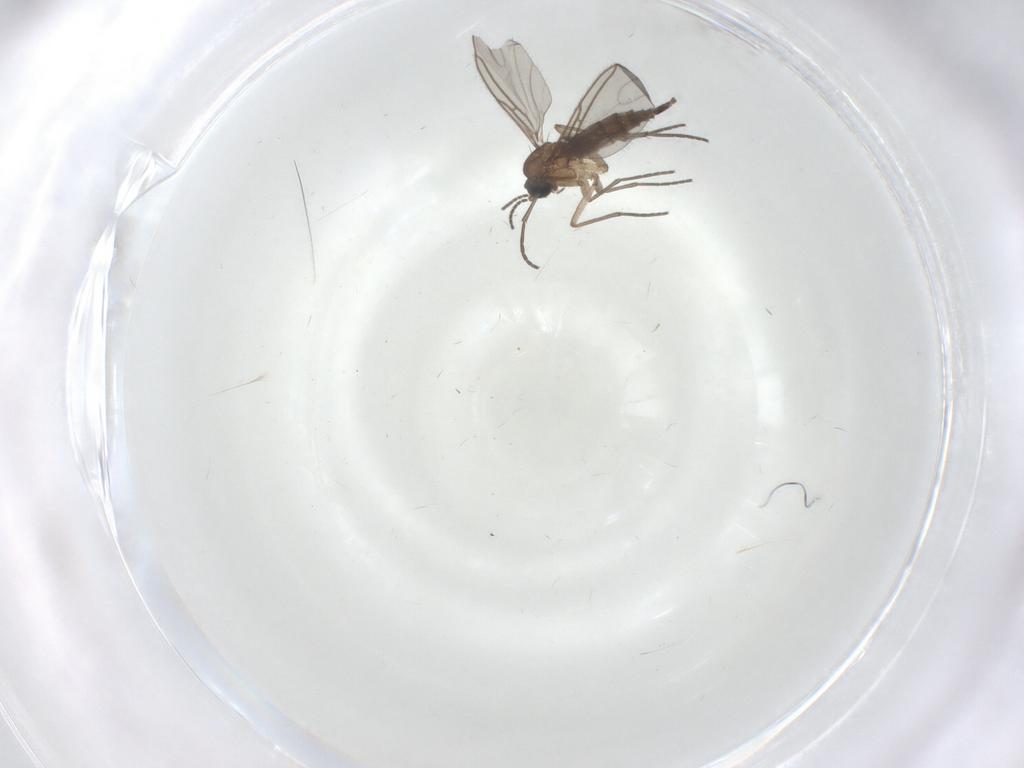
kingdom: Animalia
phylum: Arthropoda
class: Insecta
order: Diptera
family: Sciaridae
